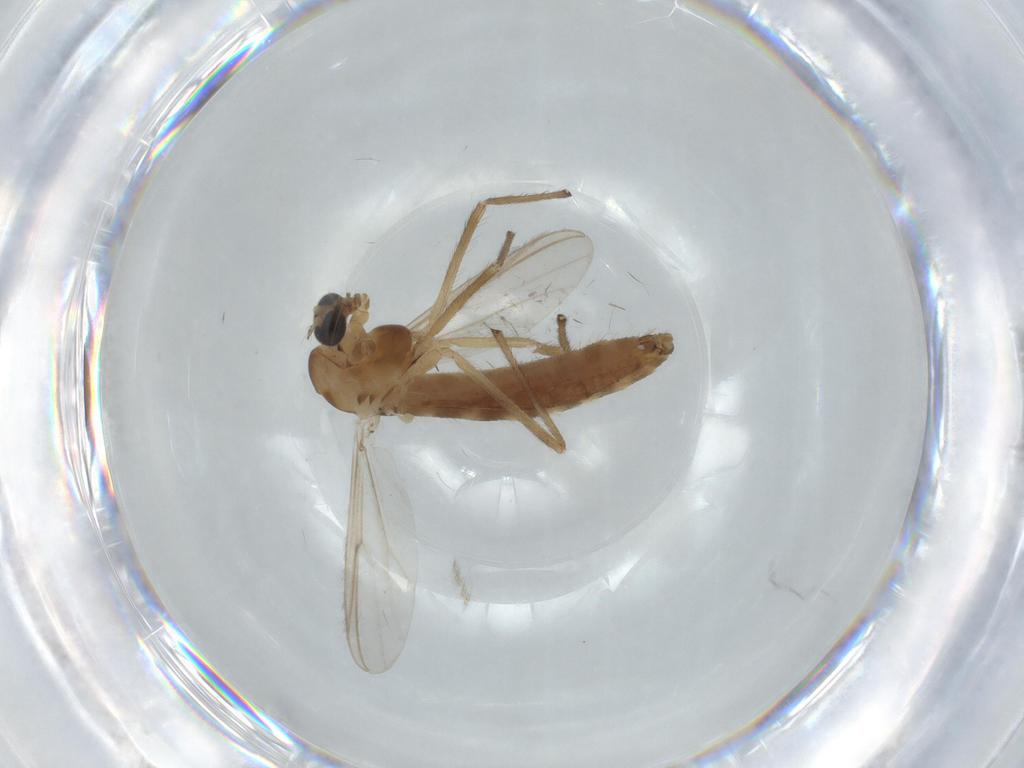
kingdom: Animalia
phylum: Arthropoda
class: Insecta
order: Diptera
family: Chironomidae
